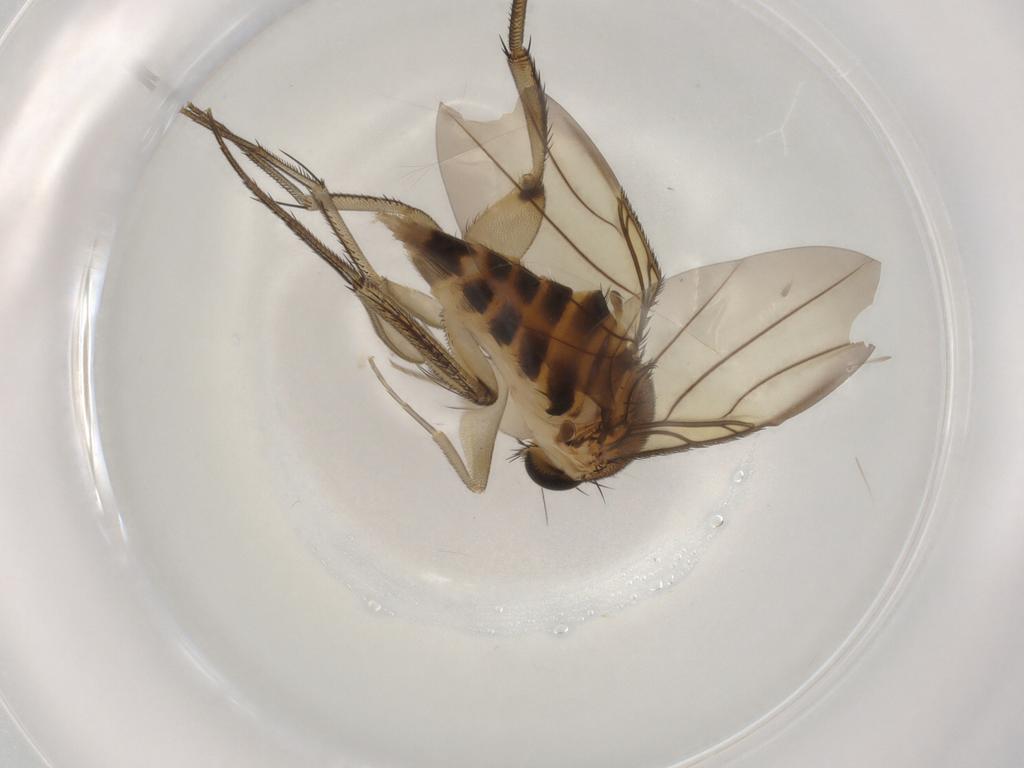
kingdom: Animalia
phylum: Arthropoda
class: Insecta
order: Diptera
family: Phoridae
